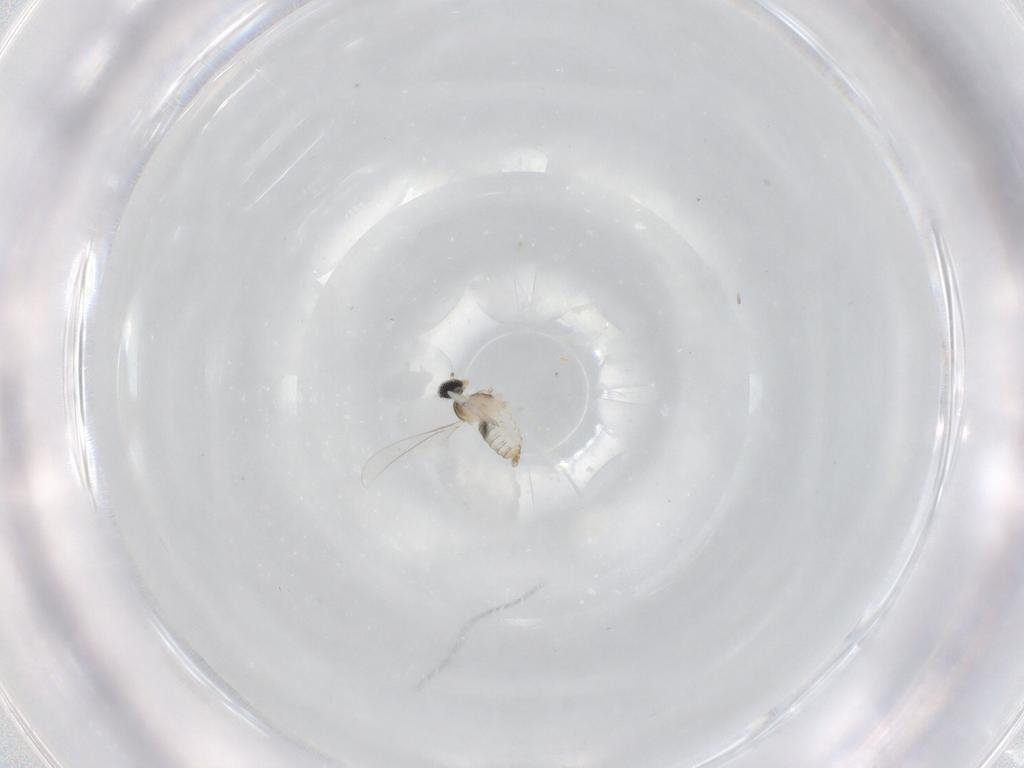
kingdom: Animalia
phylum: Arthropoda
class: Insecta
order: Diptera
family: Cecidomyiidae
